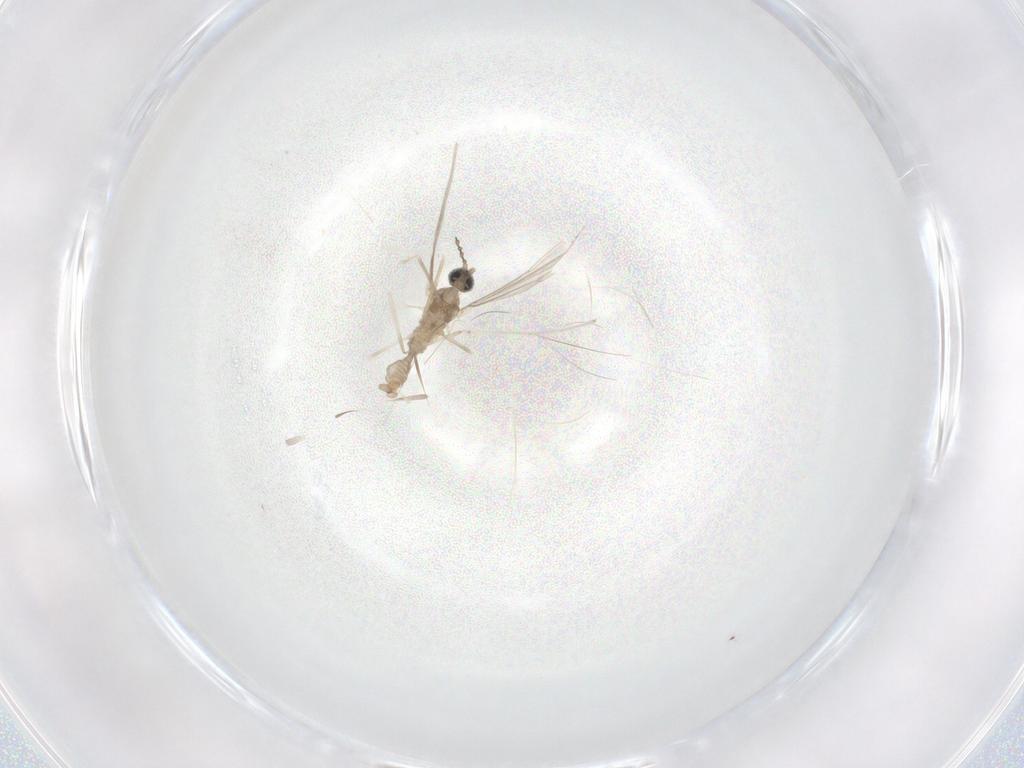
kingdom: Animalia
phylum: Arthropoda
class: Insecta
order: Diptera
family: Cecidomyiidae
